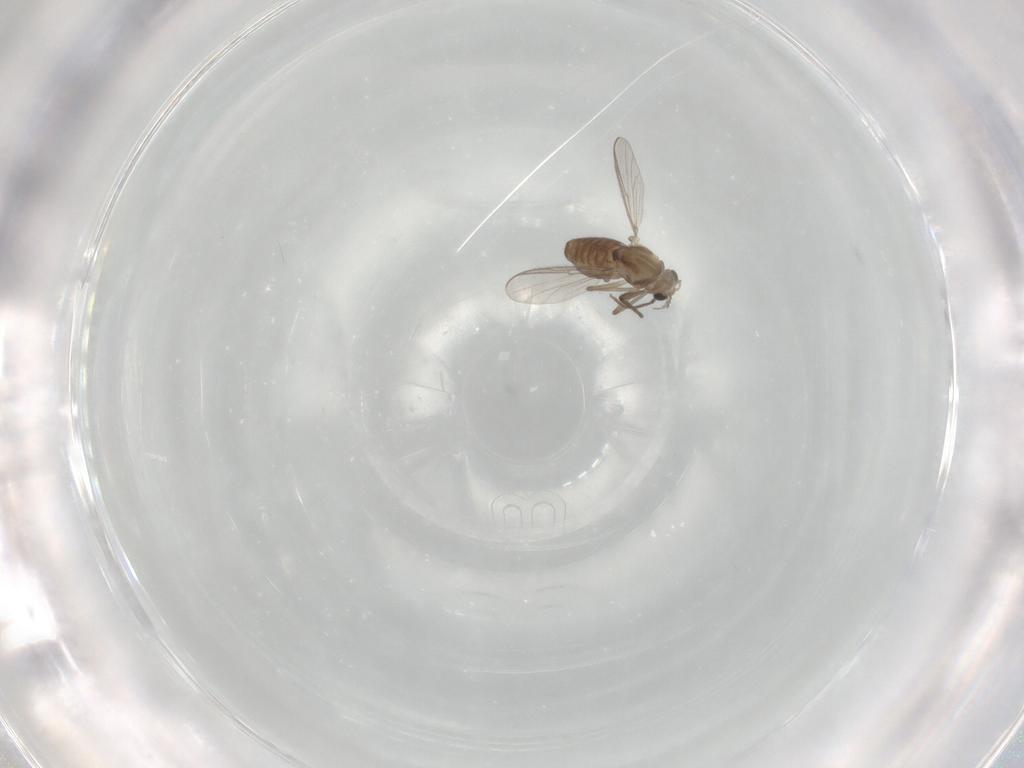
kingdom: Animalia
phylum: Arthropoda
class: Insecta
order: Diptera
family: Chironomidae
